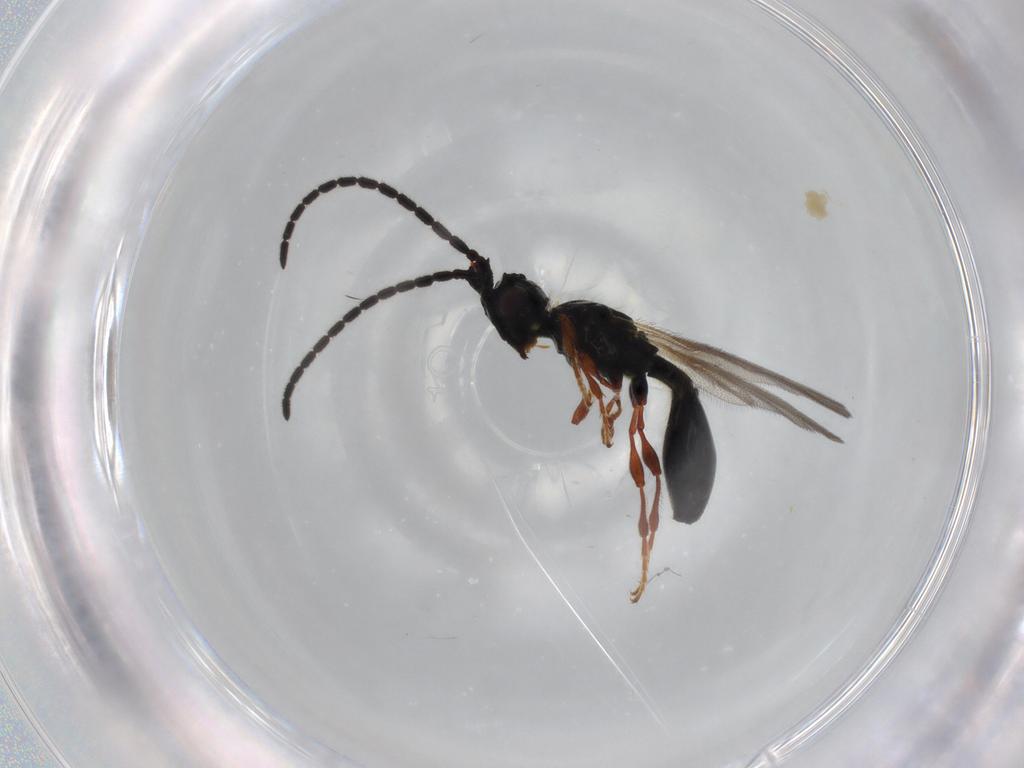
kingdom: Animalia
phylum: Arthropoda
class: Insecta
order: Hymenoptera
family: Diapriidae
